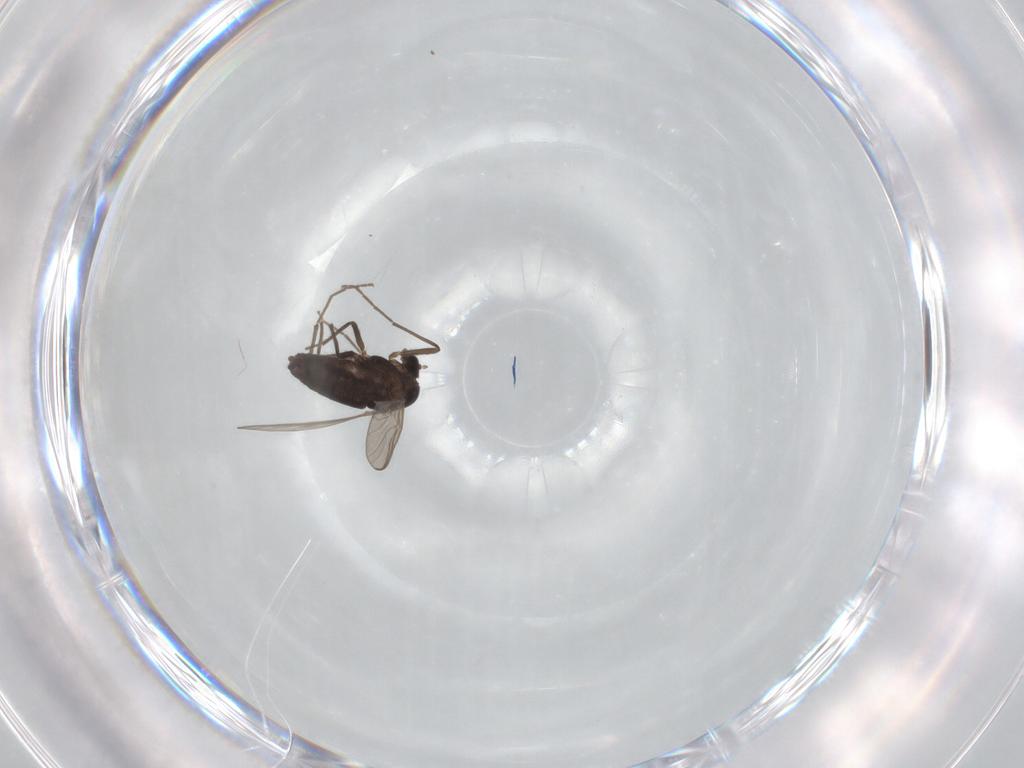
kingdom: Animalia
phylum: Arthropoda
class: Insecta
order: Diptera
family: Chironomidae
